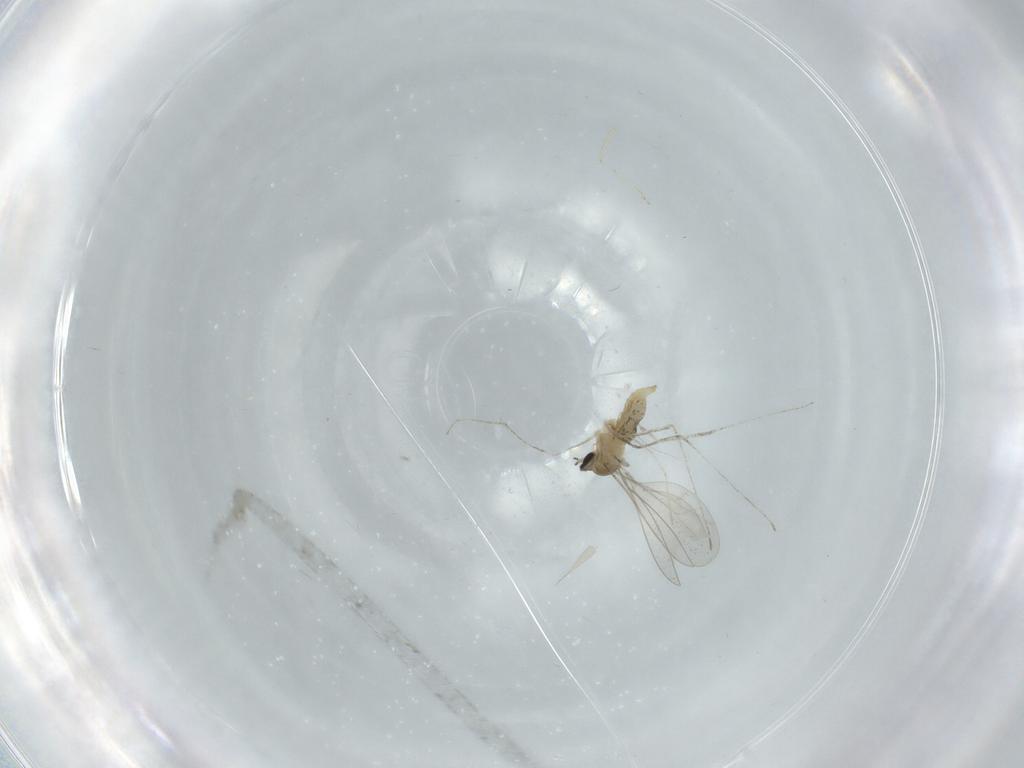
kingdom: Animalia
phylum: Arthropoda
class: Insecta
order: Diptera
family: Cecidomyiidae
